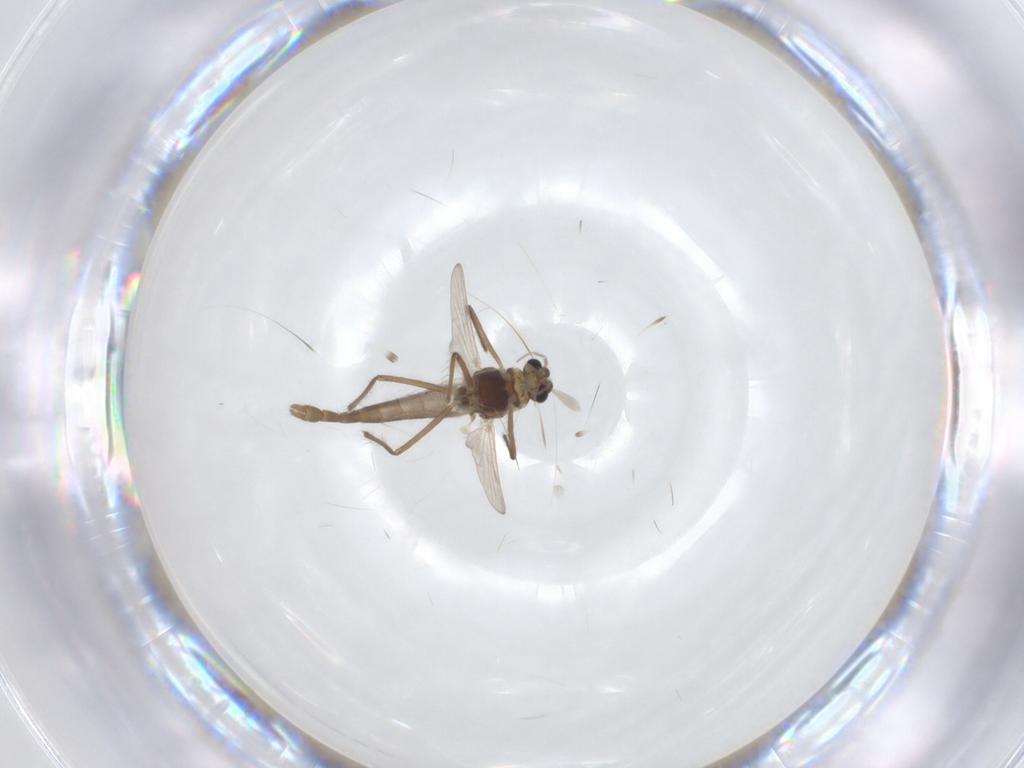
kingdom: Animalia
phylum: Arthropoda
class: Insecta
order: Diptera
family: Chironomidae
